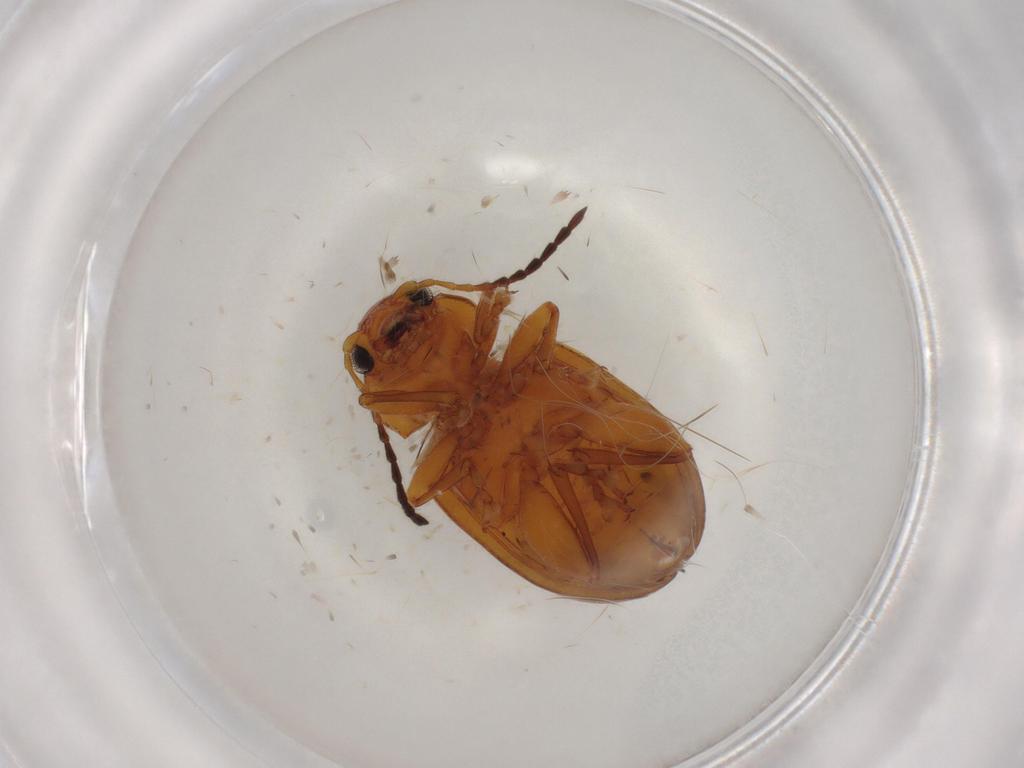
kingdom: Animalia
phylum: Arthropoda
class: Insecta
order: Coleoptera
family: Chrysomelidae
